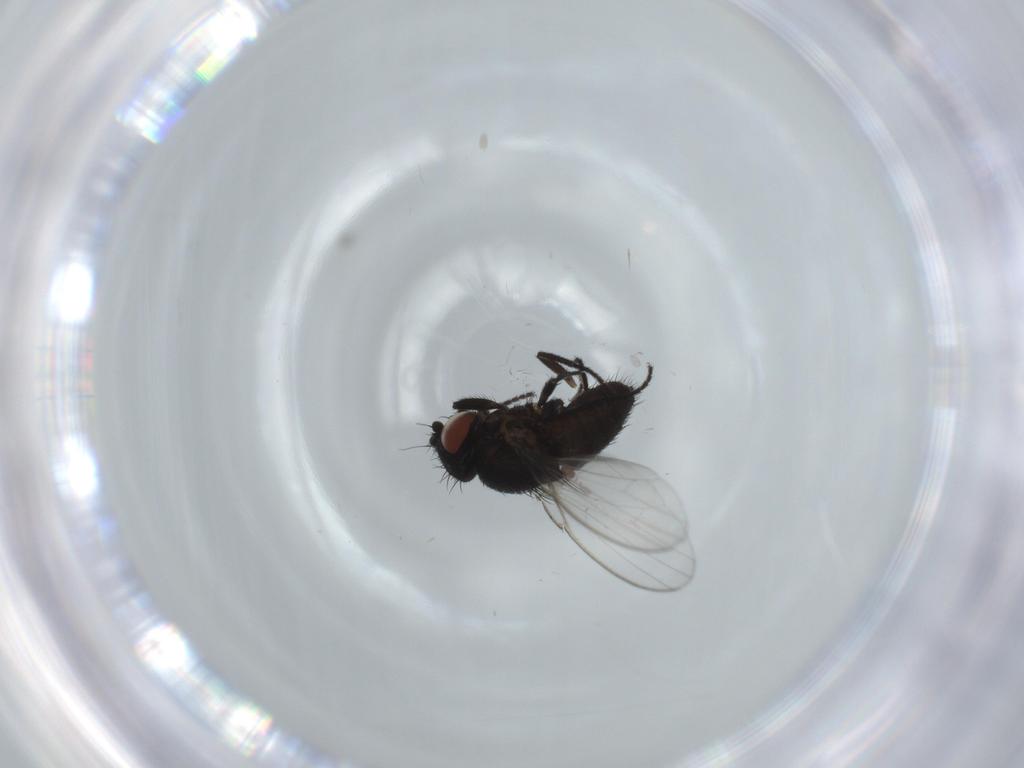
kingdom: Animalia
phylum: Arthropoda
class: Insecta
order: Diptera
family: Milichiidae
